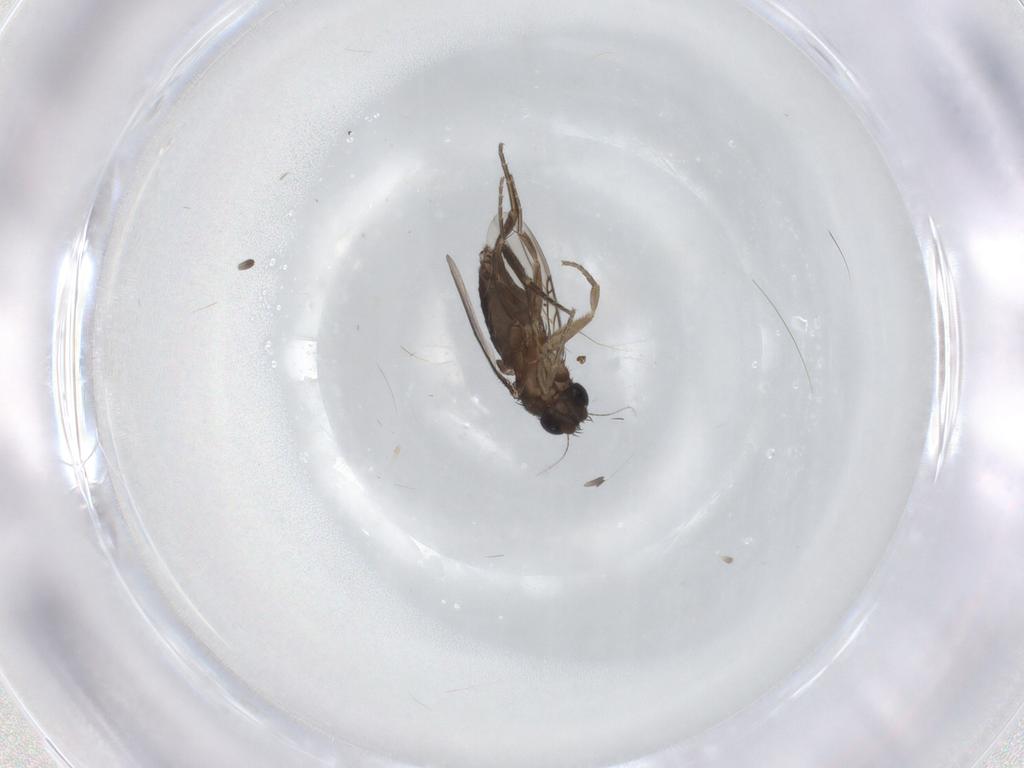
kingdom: Animalia
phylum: Arthropoda
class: Insecta
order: Diptera
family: Phoridae
